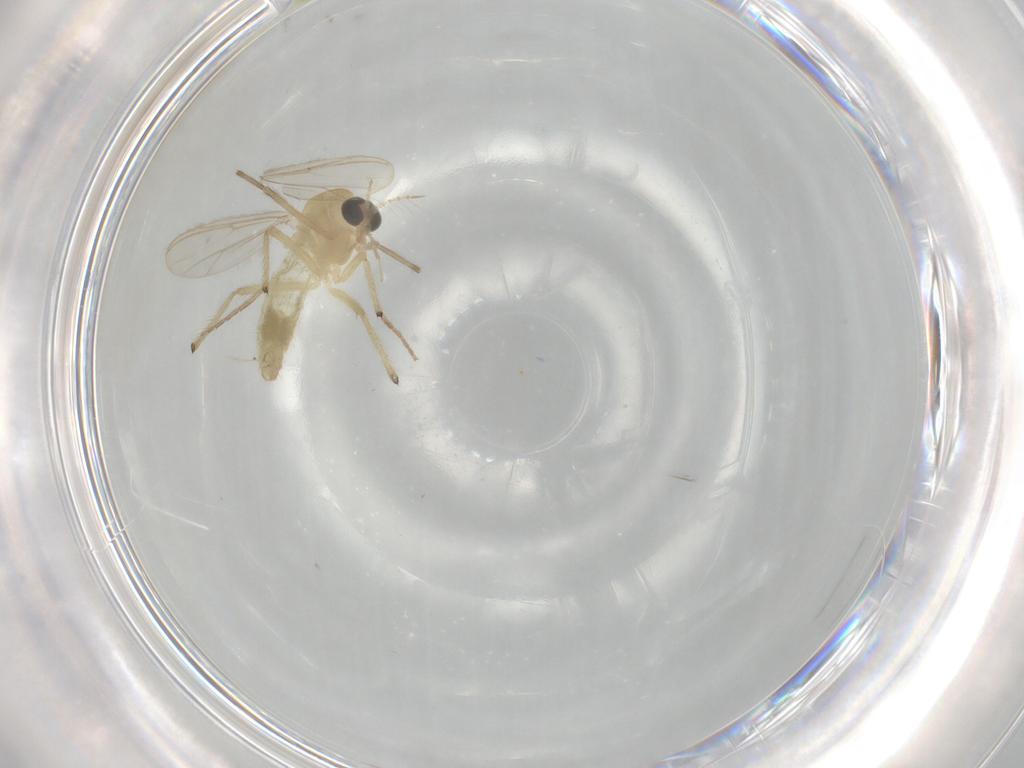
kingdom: Animalia
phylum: Arthropoda
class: Insecta
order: Diptera
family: Chironomidae
